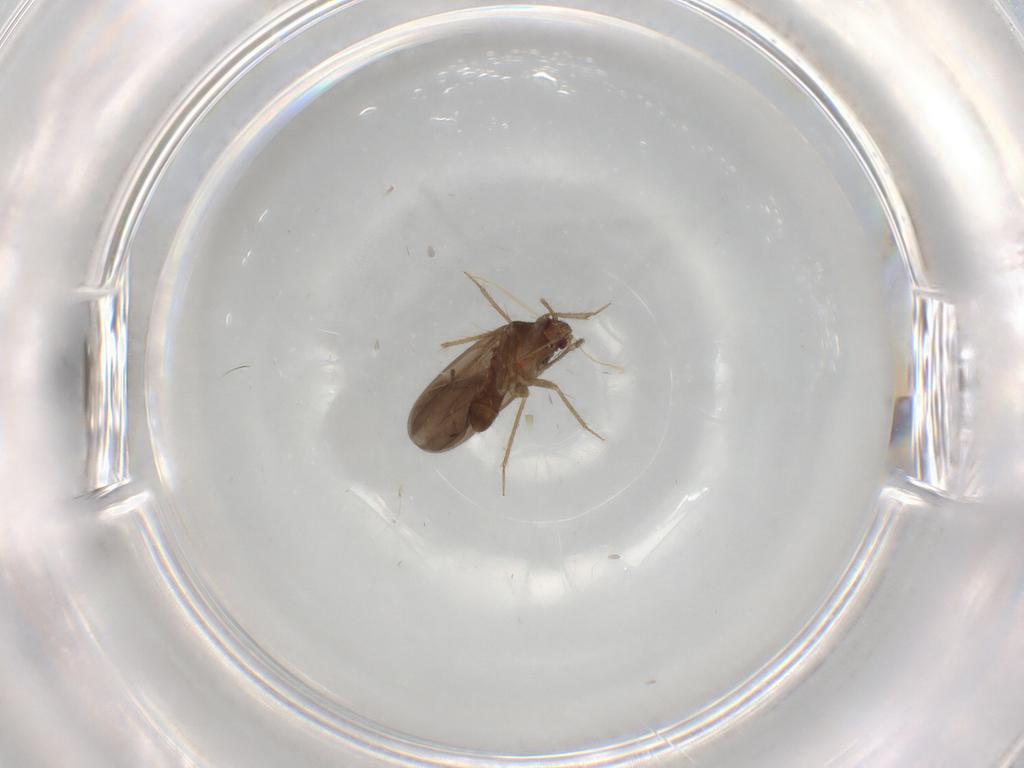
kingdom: Animalia
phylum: Arthropoda
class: Insecta
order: Hemiptera
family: Ceratocombidae
